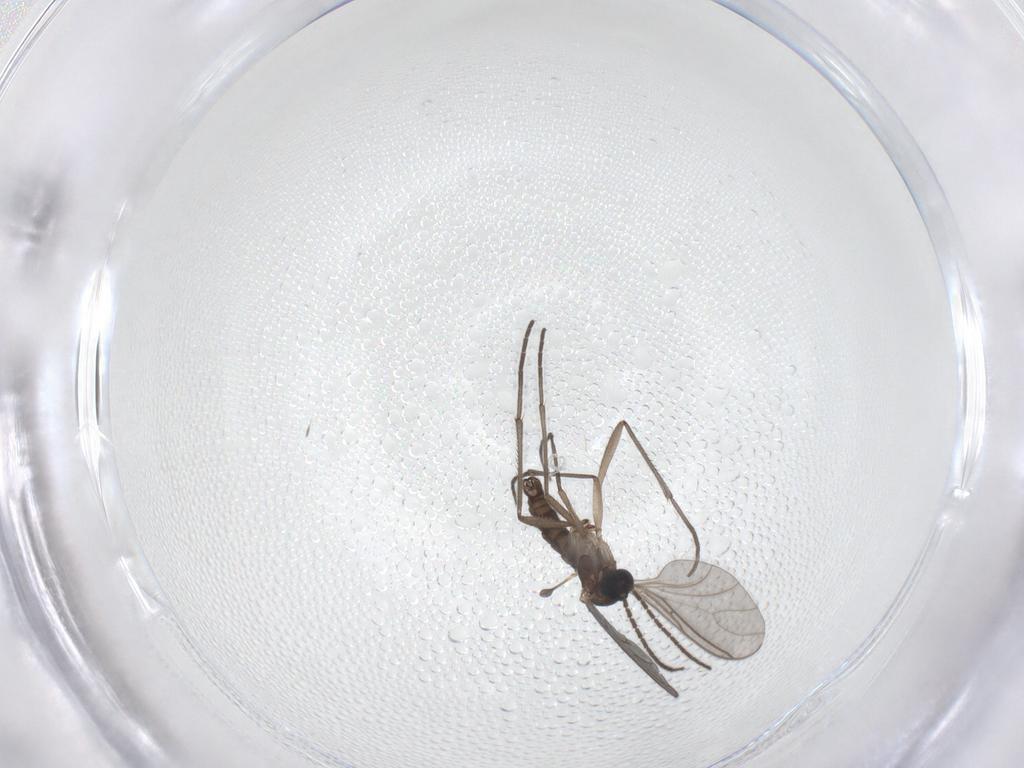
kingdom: Animalia
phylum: Arthropoda
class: Insecta
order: Diptera
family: Sciaridae
